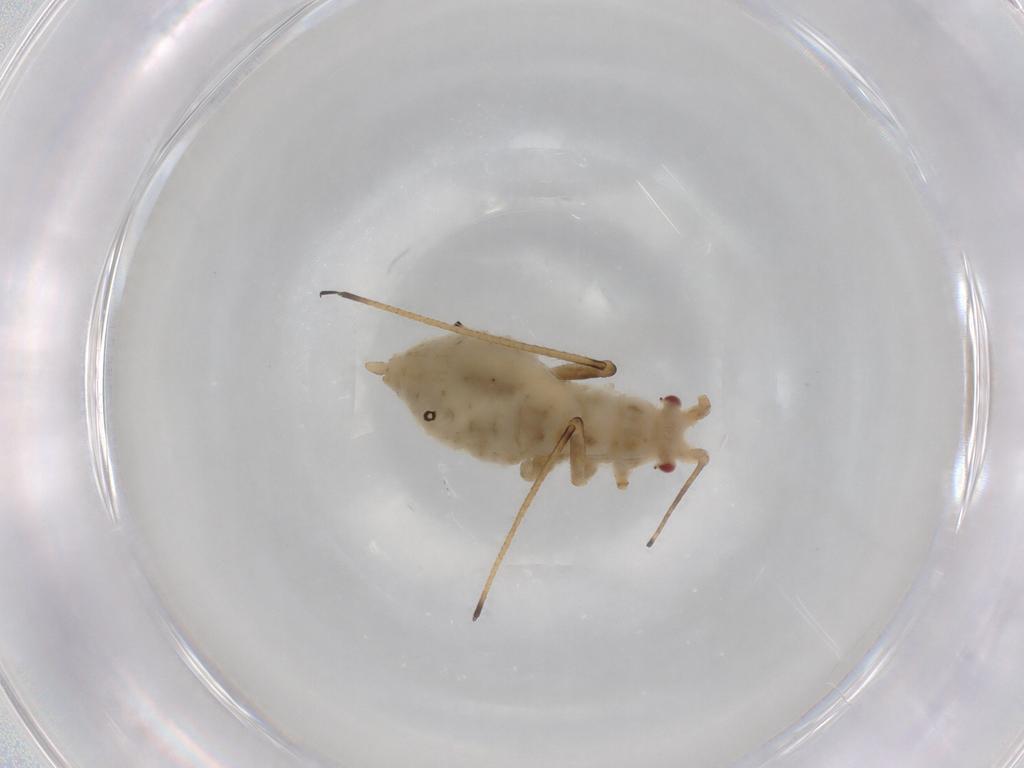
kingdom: Animalia
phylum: Arthropoda
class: Insecta
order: Hemiptera
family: Aphididae
